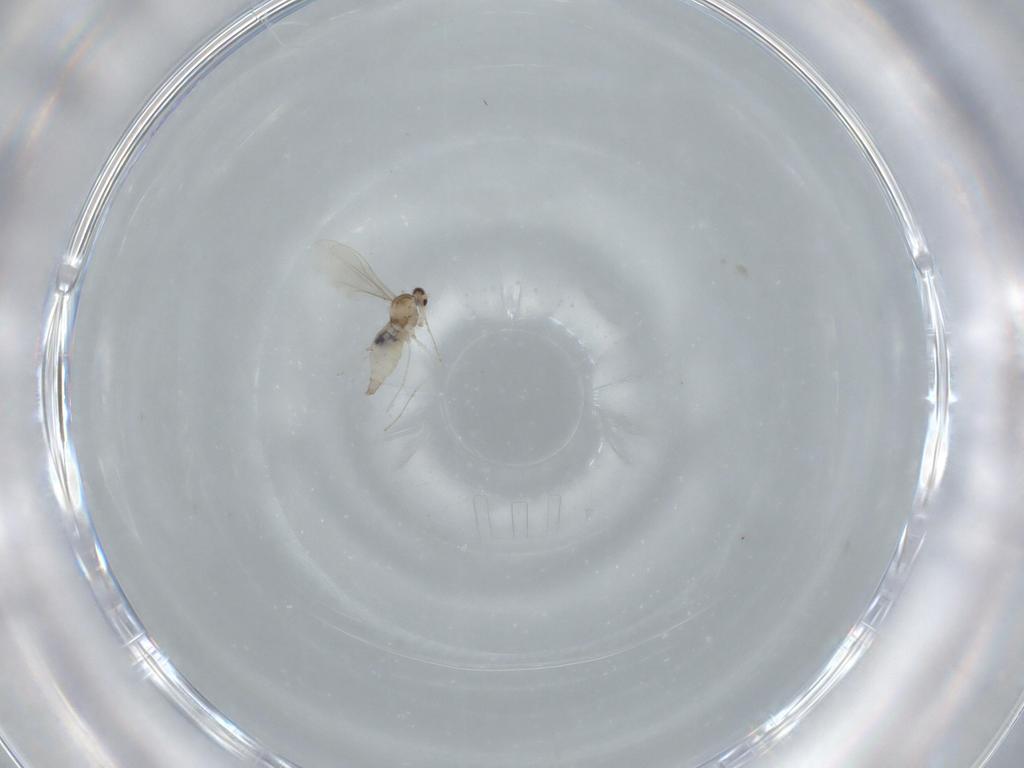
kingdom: Animalia
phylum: Arthropoda
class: Insecta
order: Diptera
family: Cecidomyiidae
